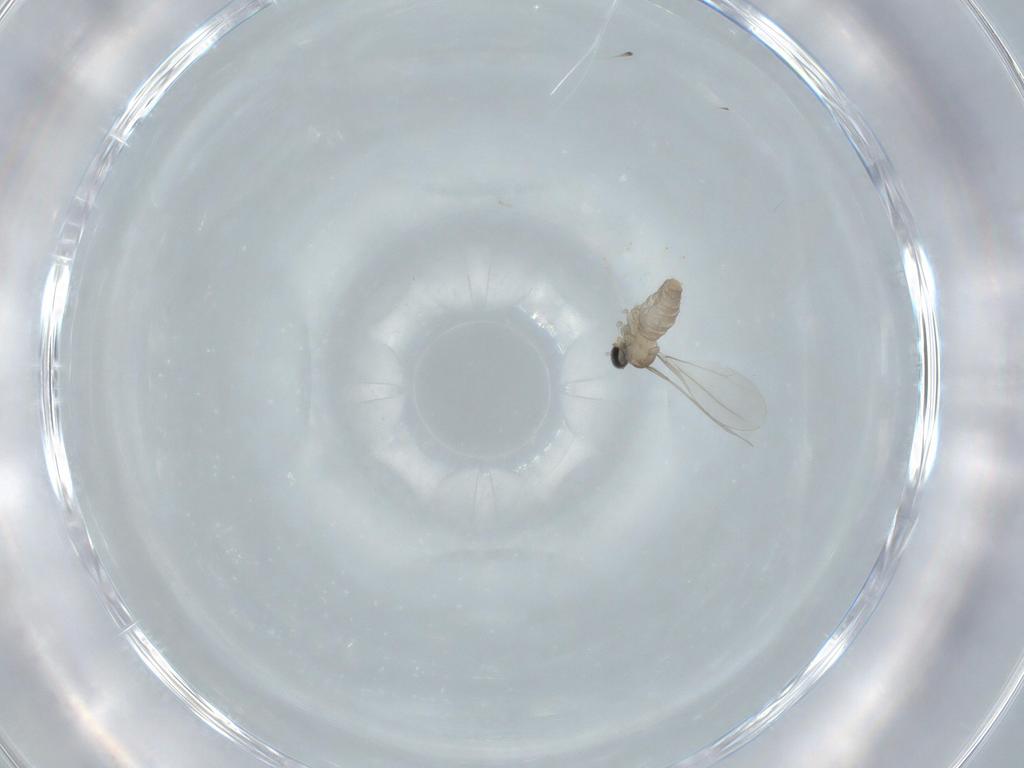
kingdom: Animalia
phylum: Arthropoda
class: Insecta
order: Diptera
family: Cecidomyiidae
